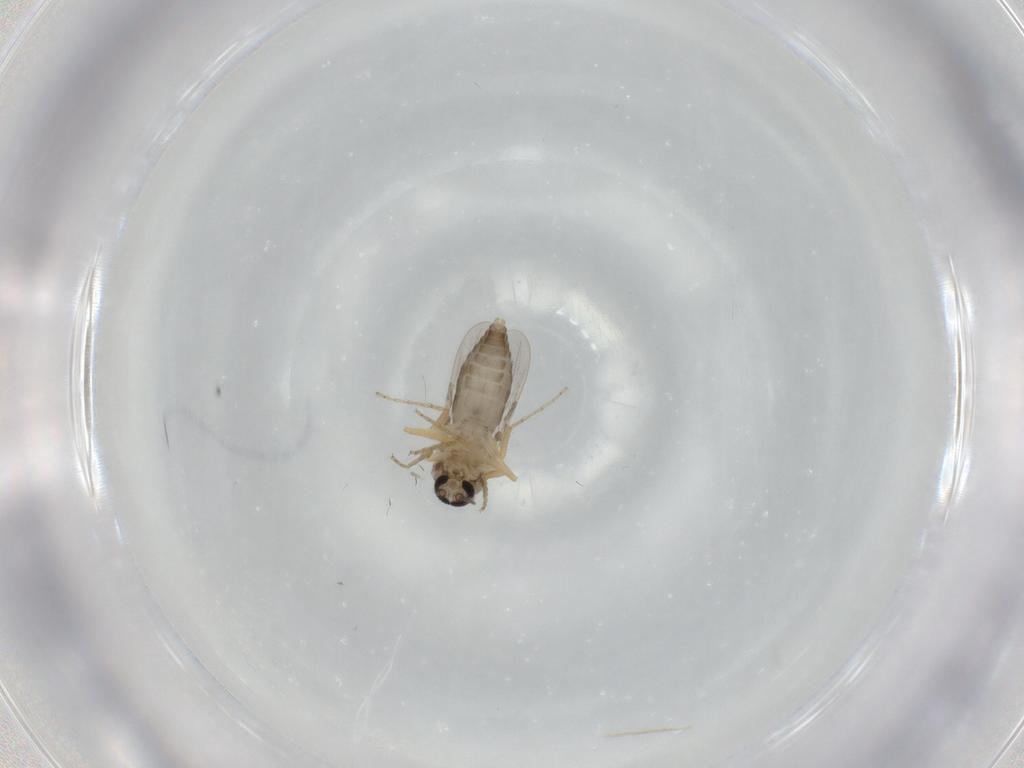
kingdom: Animalia
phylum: Arthropoda
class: Insecta
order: Diptera
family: Ceratopogonidae
